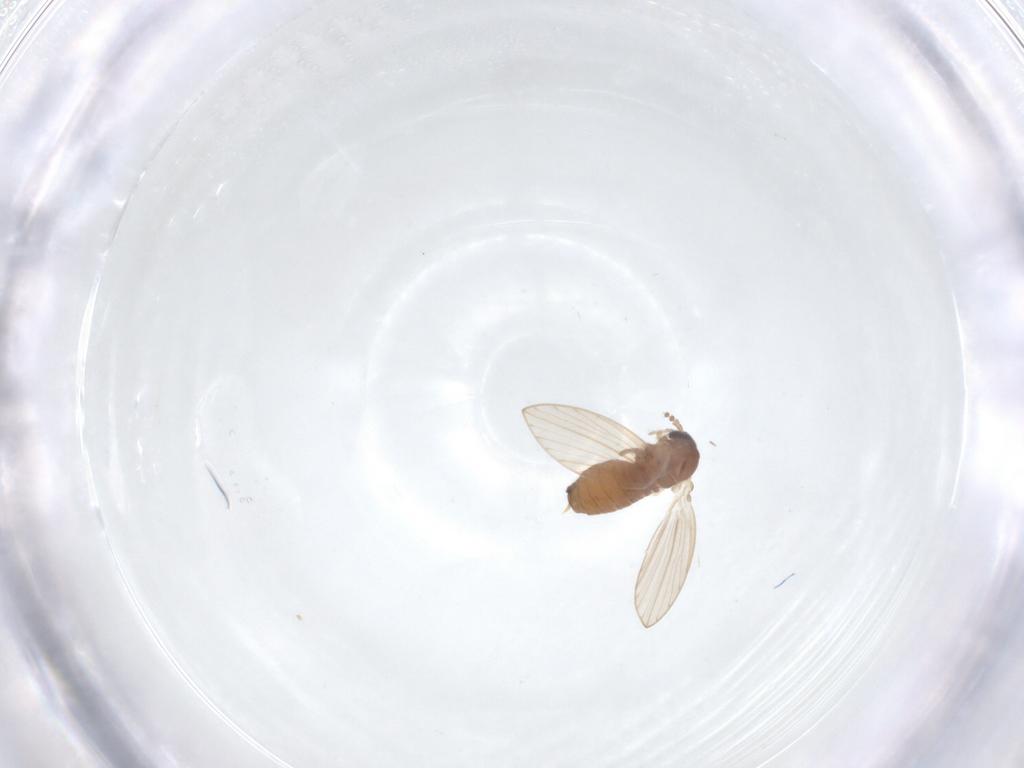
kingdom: Animalia
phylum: Arthropoda
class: Insecta
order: Diptera
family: Psychodidae
